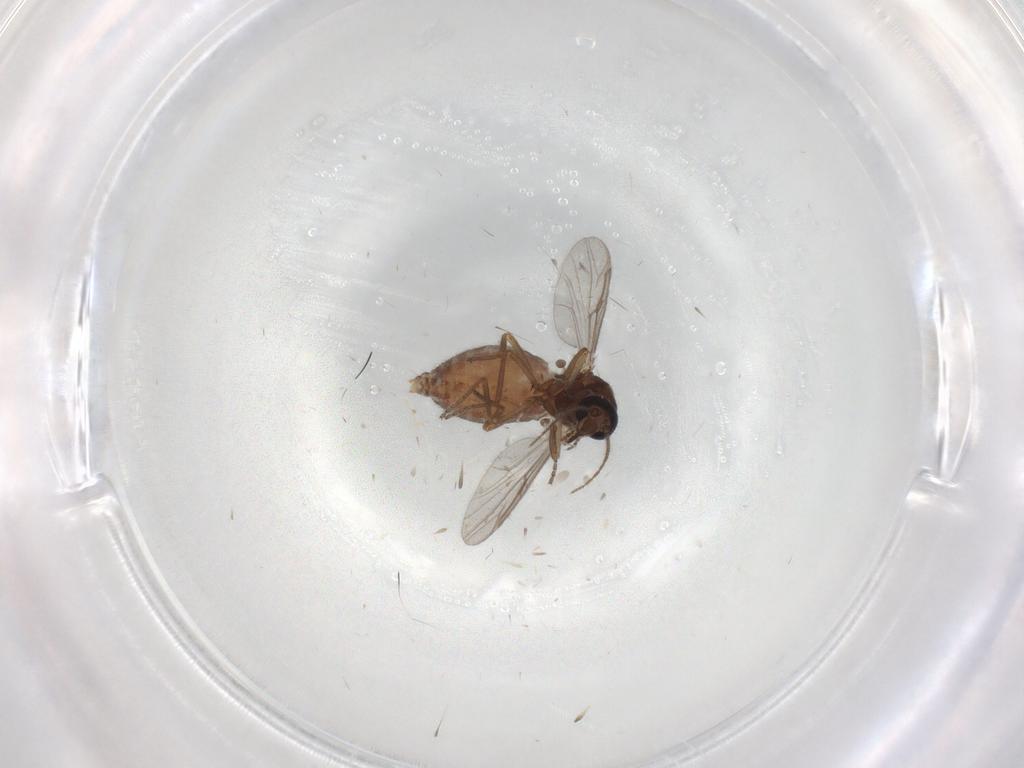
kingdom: Animalia
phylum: Arthropoda
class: Insecta
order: Diptera
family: Ceratopogonidae
